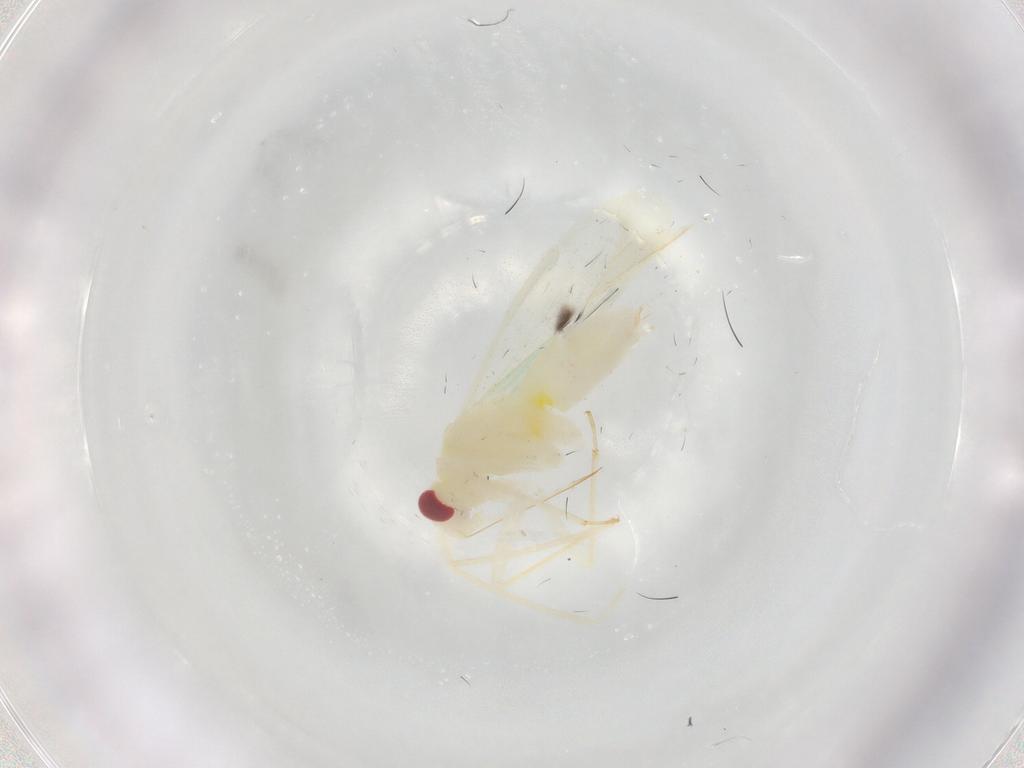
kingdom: Animalia
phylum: Arthropoda
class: Insecta
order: Hemiptera
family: Miridae
